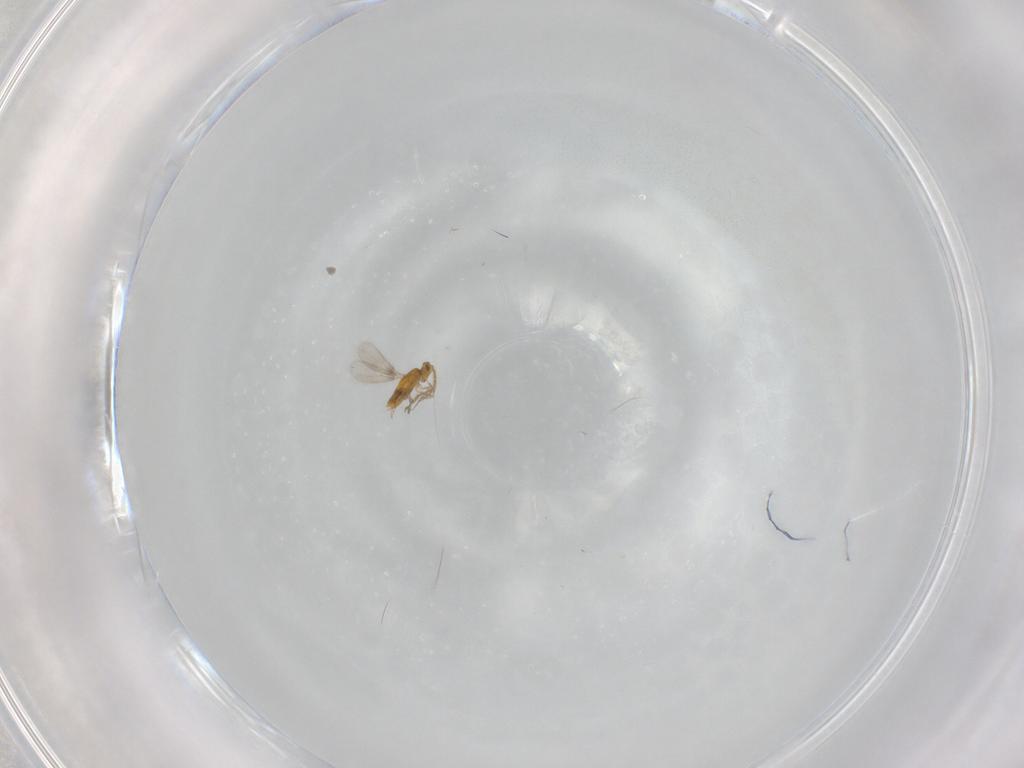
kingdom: Animalia
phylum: Arthropoda
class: Insecta
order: Hymenoptera
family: Aphelinidae
